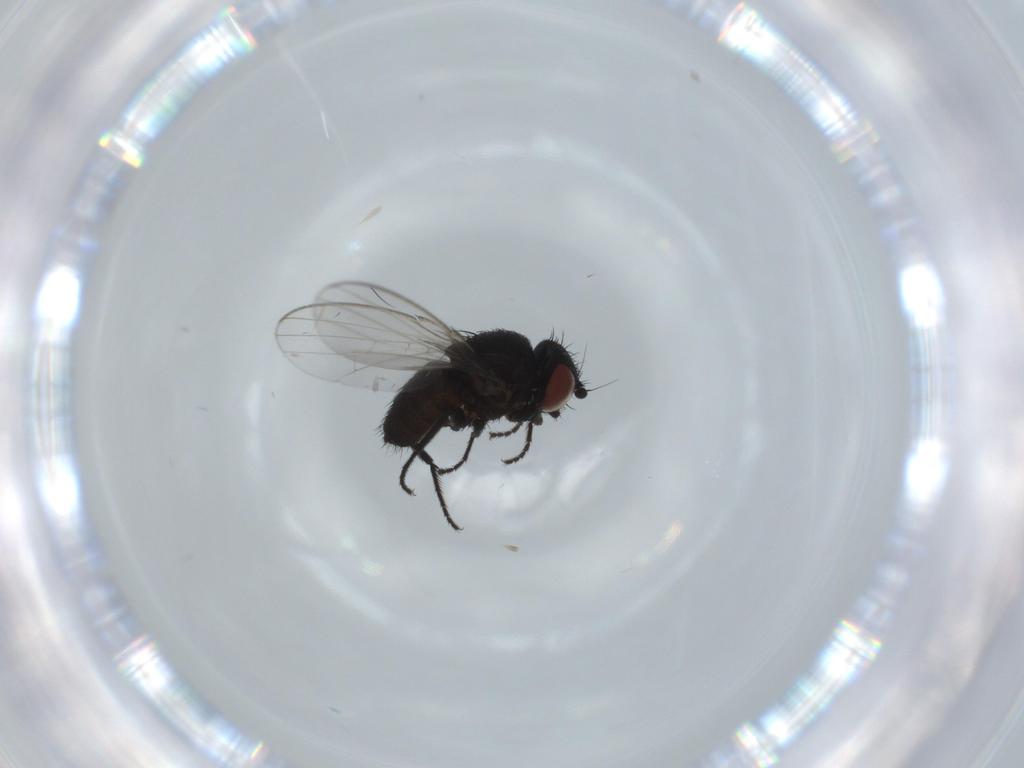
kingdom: Animalia
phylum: Arthropoda
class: Insecta
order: Diptera
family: Milichiidae
